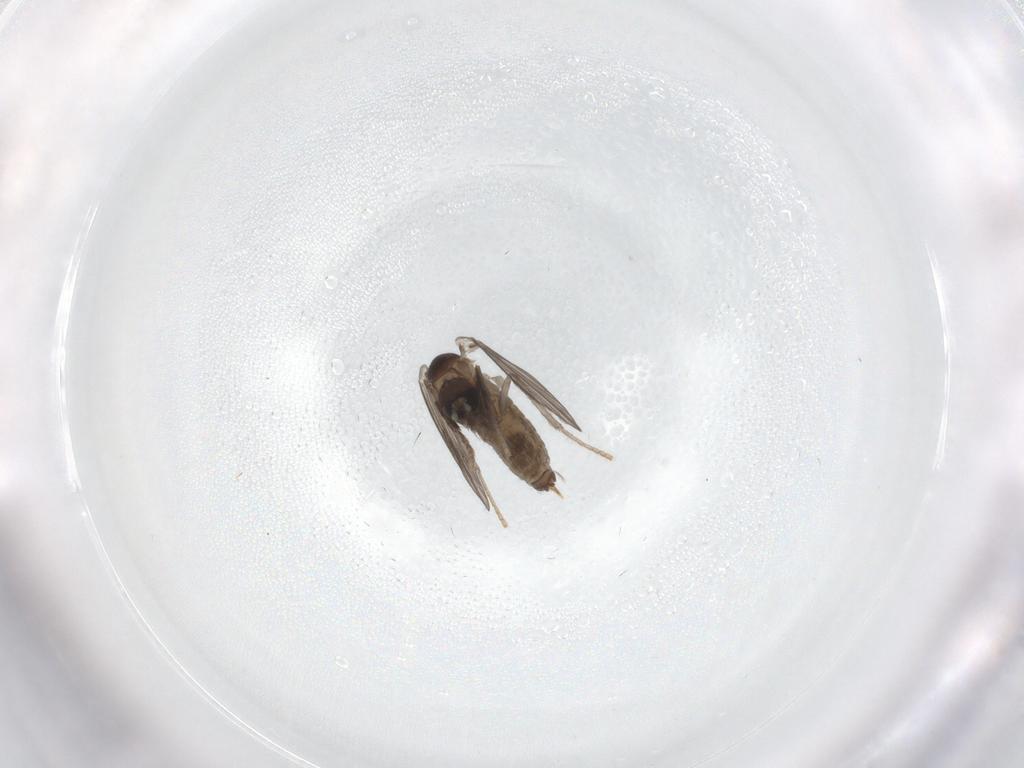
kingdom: Animalia
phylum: Arthropoda
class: Insecta
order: Diptera
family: Psychodidae
